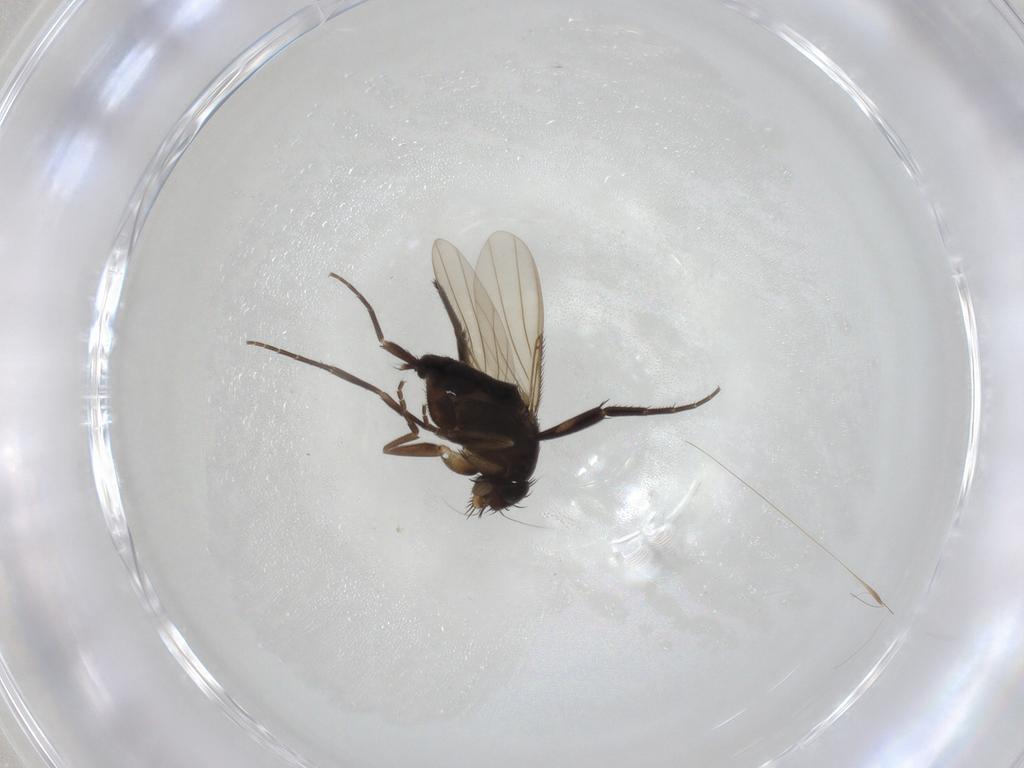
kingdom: Animalia
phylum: Arthropoda
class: Insecta
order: Diptera
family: Phoridae
